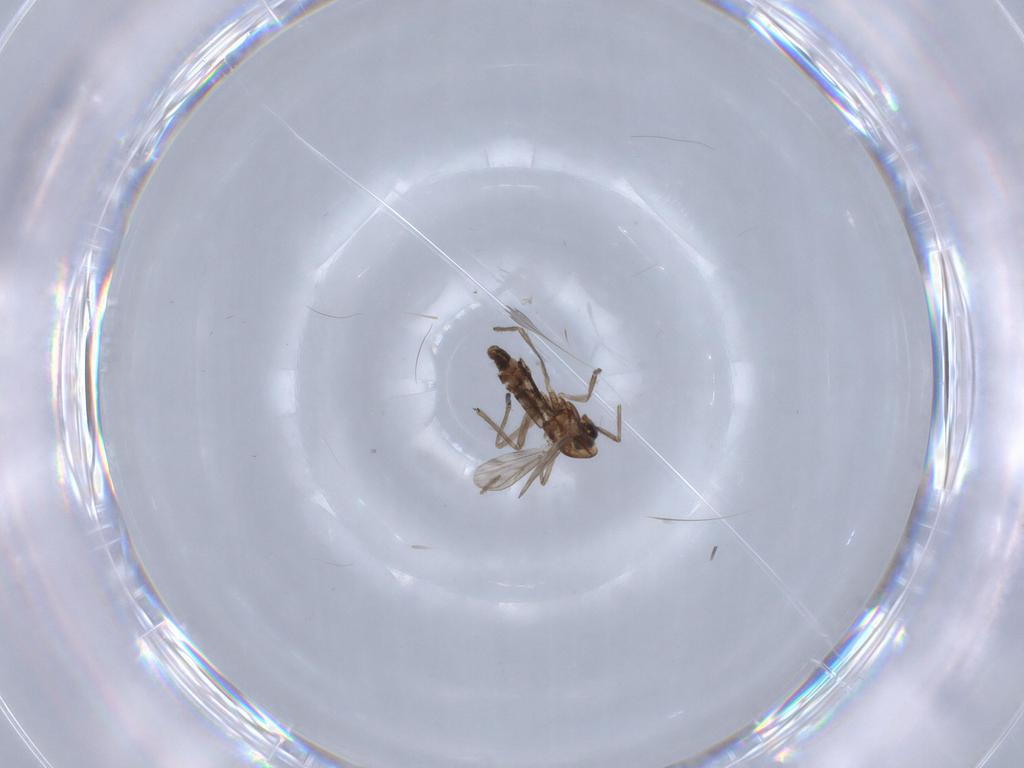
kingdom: Animalia
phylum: Arthropoda
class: Insecta
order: Diptera
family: Chironomidae
